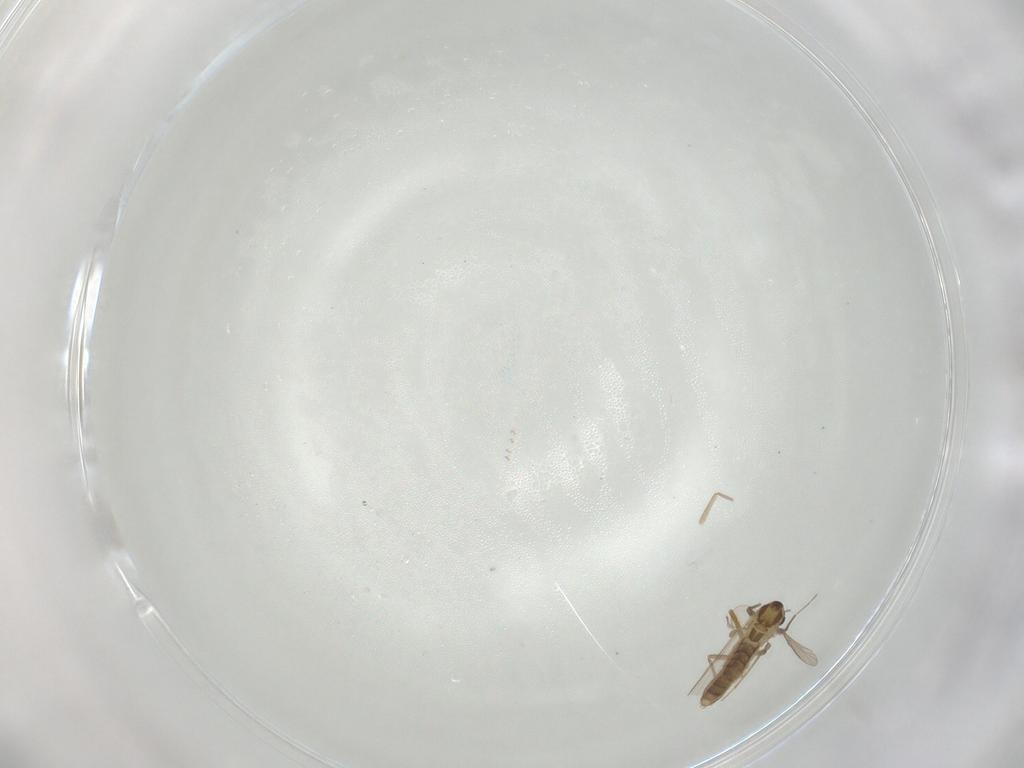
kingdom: Animalia
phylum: Arthropoda
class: Insecta
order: Diptera
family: Chironomidae
